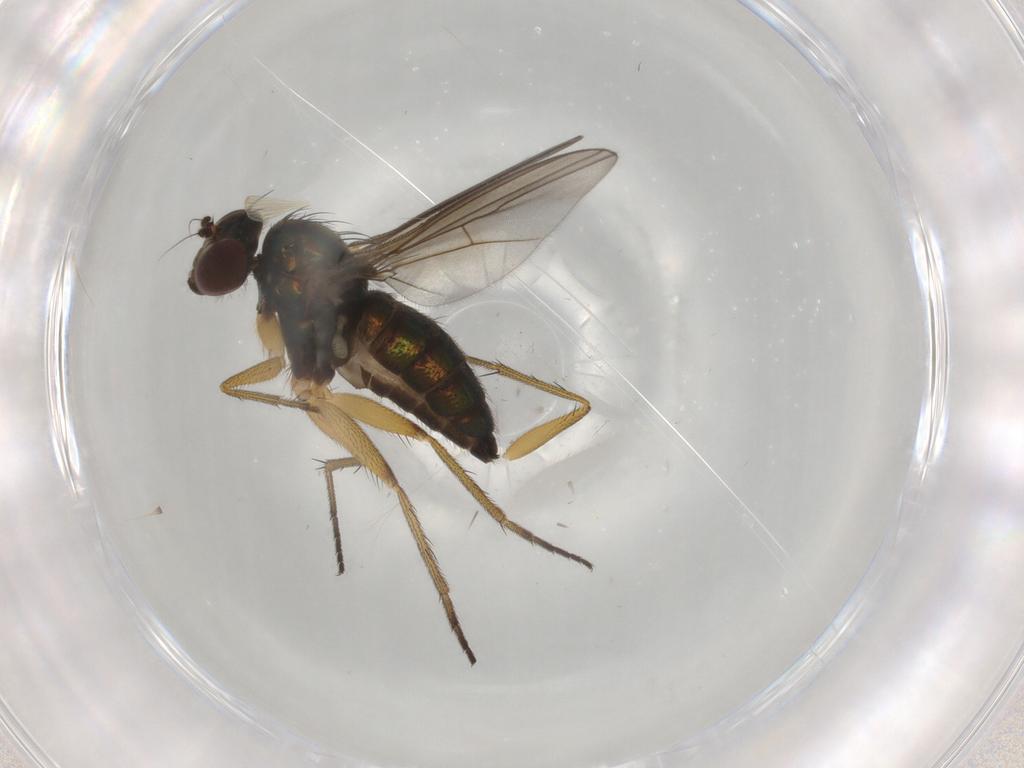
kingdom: Animalia
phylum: Arthropoda
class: Insecta
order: Diptera
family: Dolichopodidae
